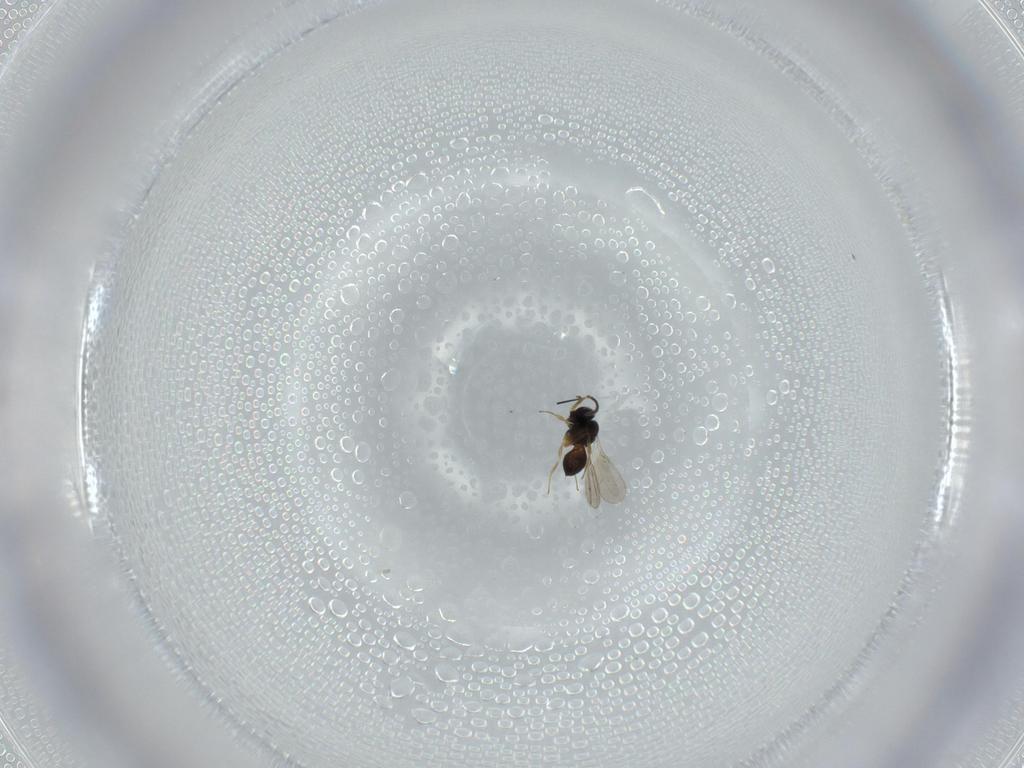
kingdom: Animalia
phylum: Arthropoda
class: Insecta
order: Hymenoptera
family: Scelionidae
